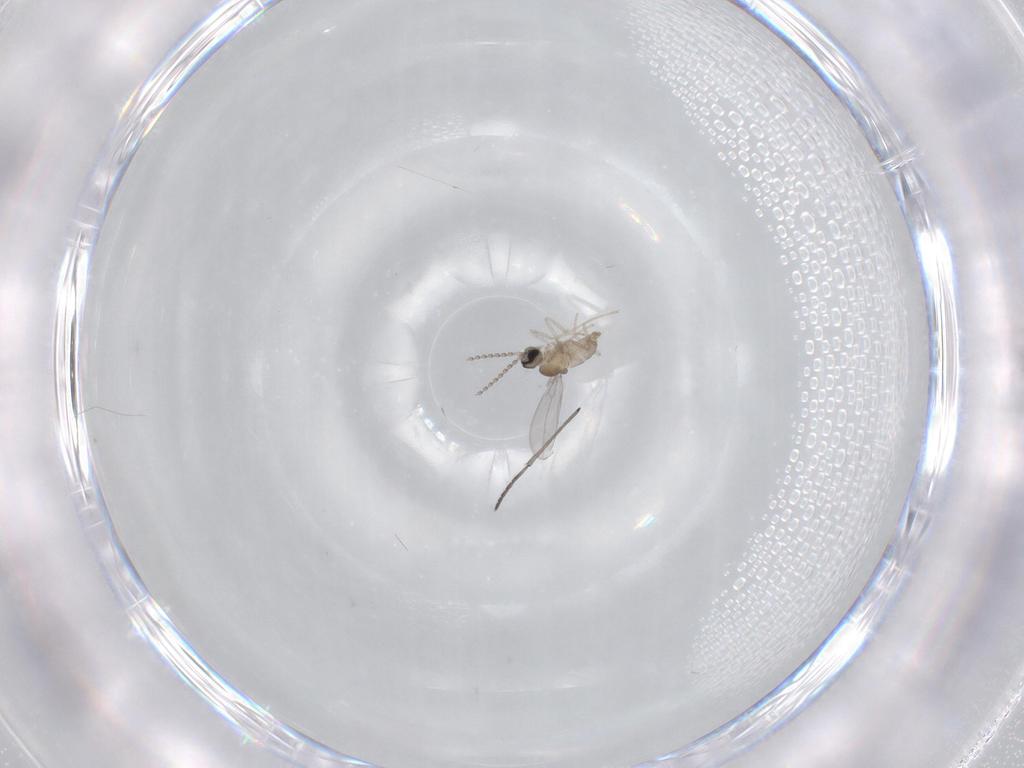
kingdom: Animalia
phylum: Arthropoda
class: Insecta
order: Diptera
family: Cecidomyiidae
